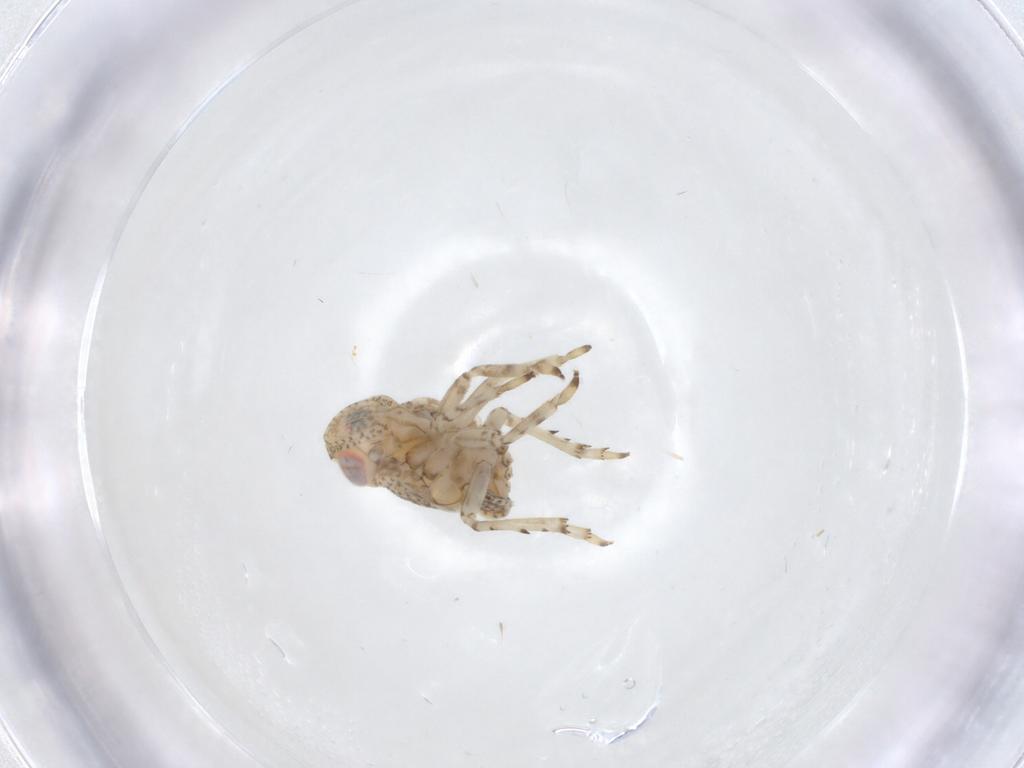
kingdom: Animalia
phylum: Arthropoda
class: Insecta
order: Hemiptera
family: Issidae
